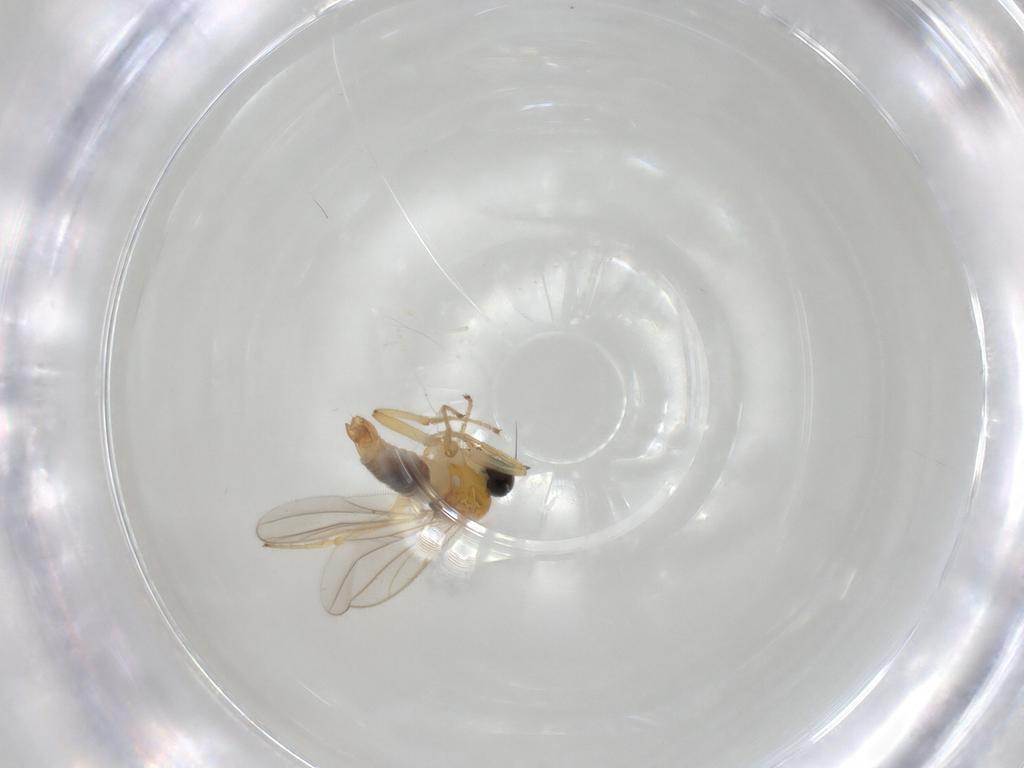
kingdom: Animalia
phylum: Arthropoda
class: Insecta
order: Diptera
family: Hybotidae
